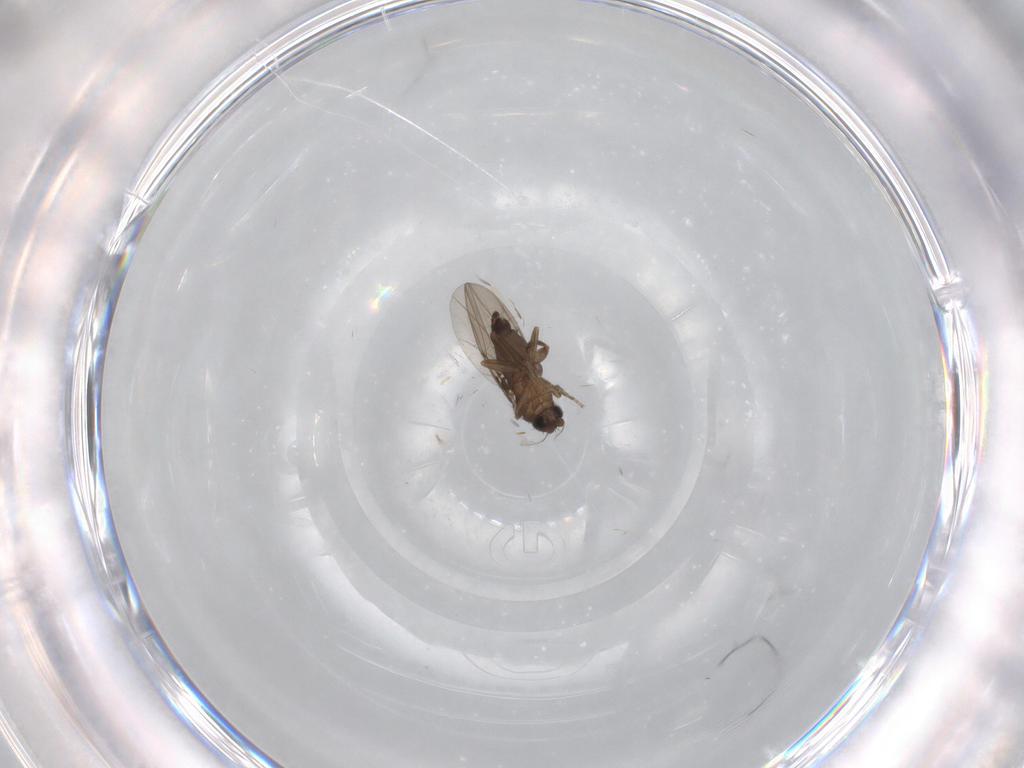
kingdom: Animalia
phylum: Arthropoda
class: Insecta
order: Diptera
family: Phoridae
